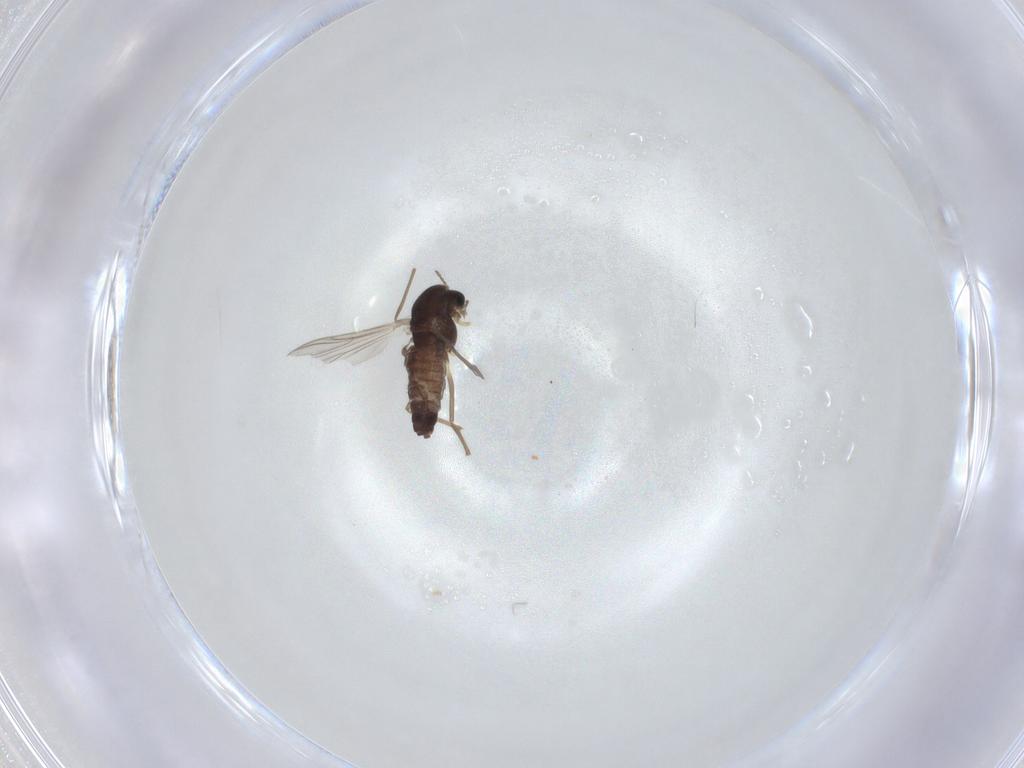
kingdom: Animalia
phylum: Arthropoda
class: Insecta
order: Diptera
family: Chironomidae
